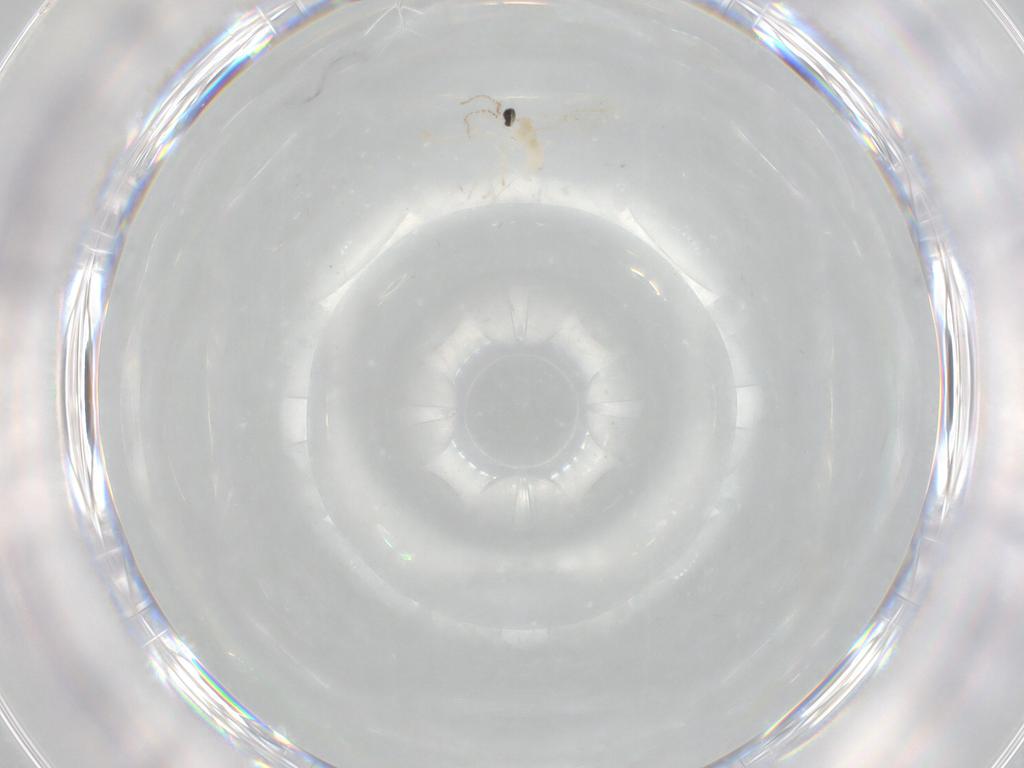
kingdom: Animalia
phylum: Arthropoda
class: Insecta
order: Diptera
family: Cecidomyiidae
